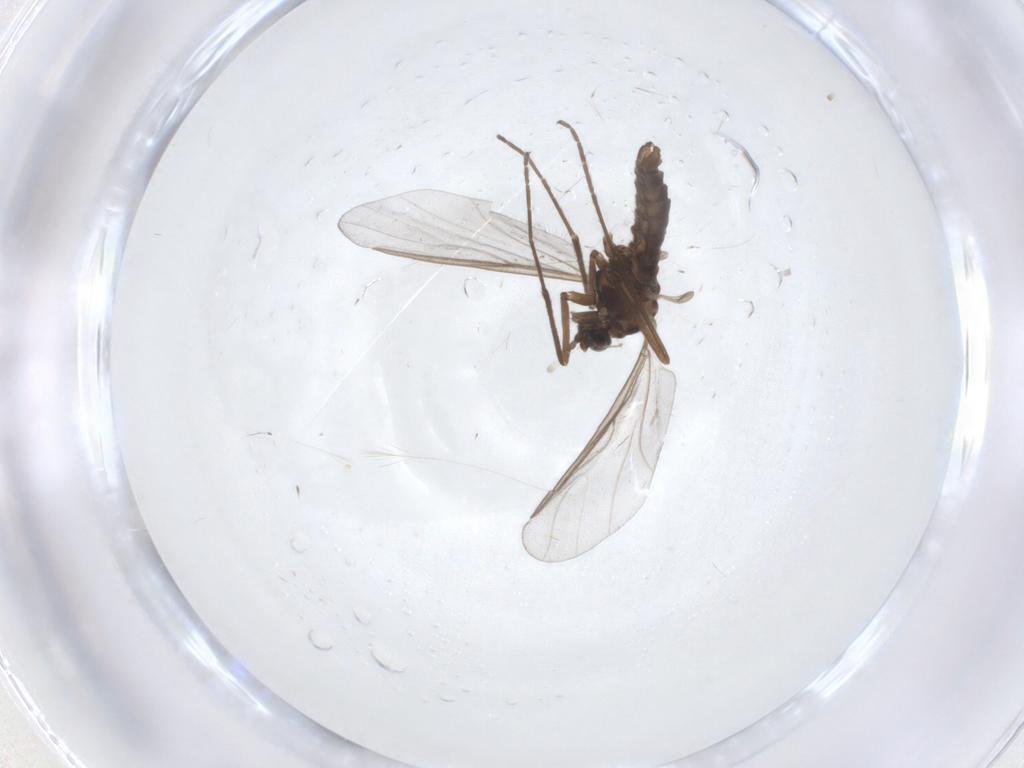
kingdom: Animalia
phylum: Arthropoda
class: Insecta
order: Diptera
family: Cecidomyiidae
